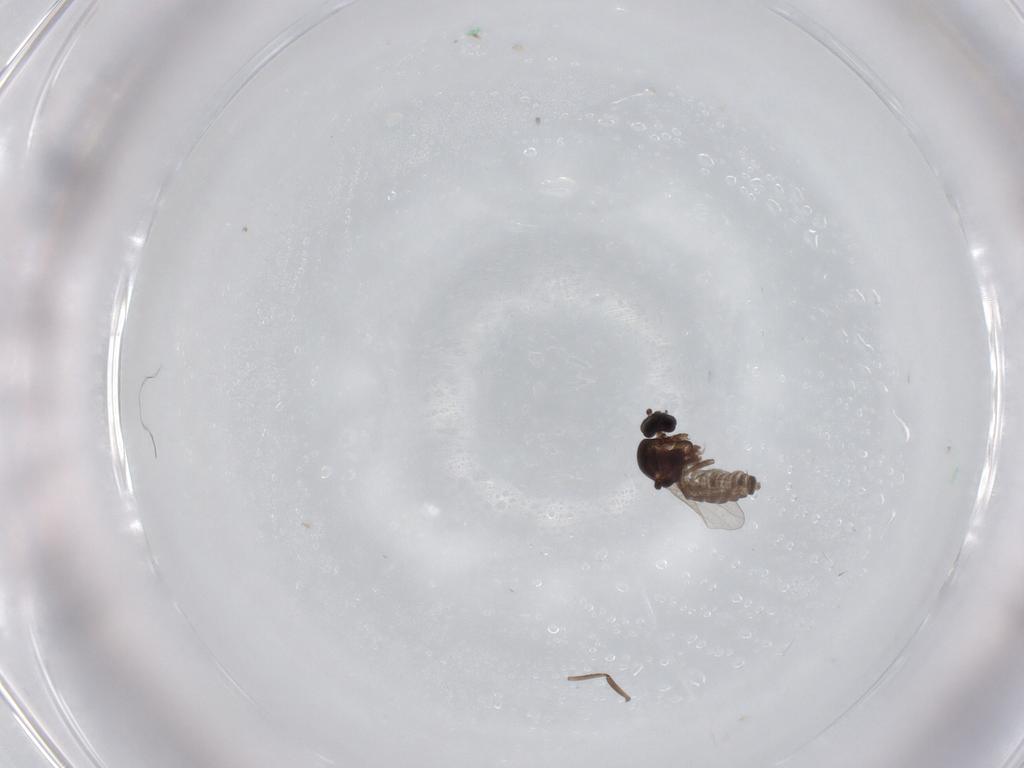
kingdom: Animalia
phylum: Arthropoda
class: Insecta
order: Diptera
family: Ceratopogonidae
